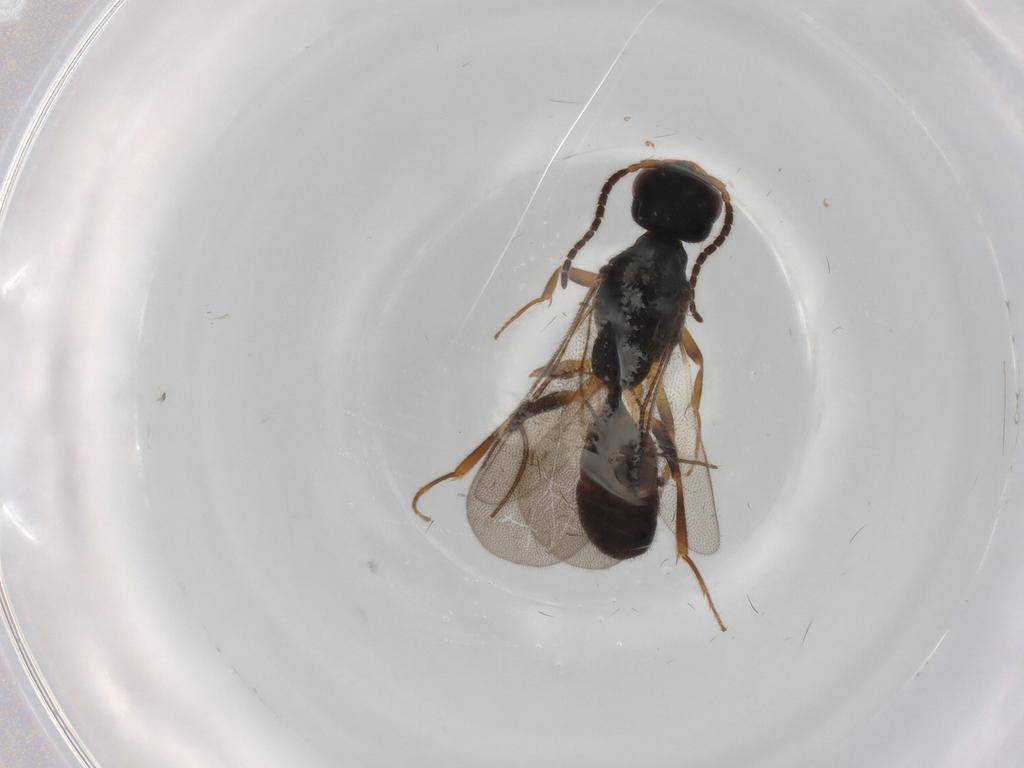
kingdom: Animalia
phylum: Arthropoda
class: Insecta
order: Hymenoptera
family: Bethylidae
